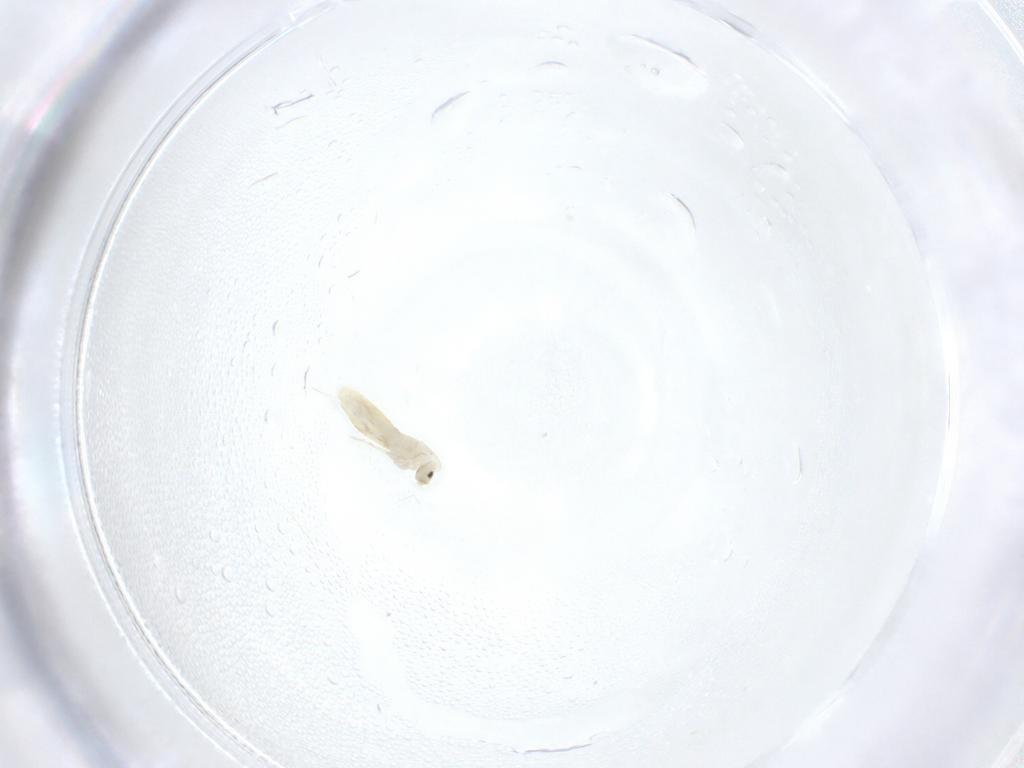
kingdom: Animalia
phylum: Arthropoda
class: Collembola
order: Entomobryomorpha
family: Entomobryidae
